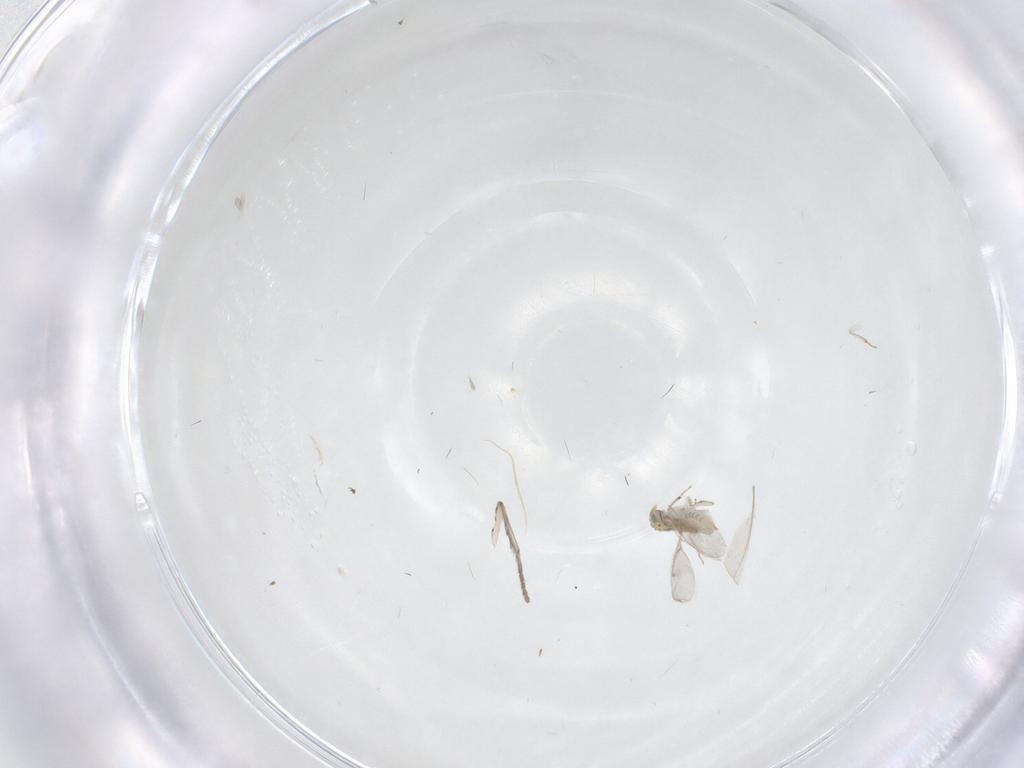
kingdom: Animalia
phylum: Arthropoda
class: Insecta
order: Diptera
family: Psychodidae
